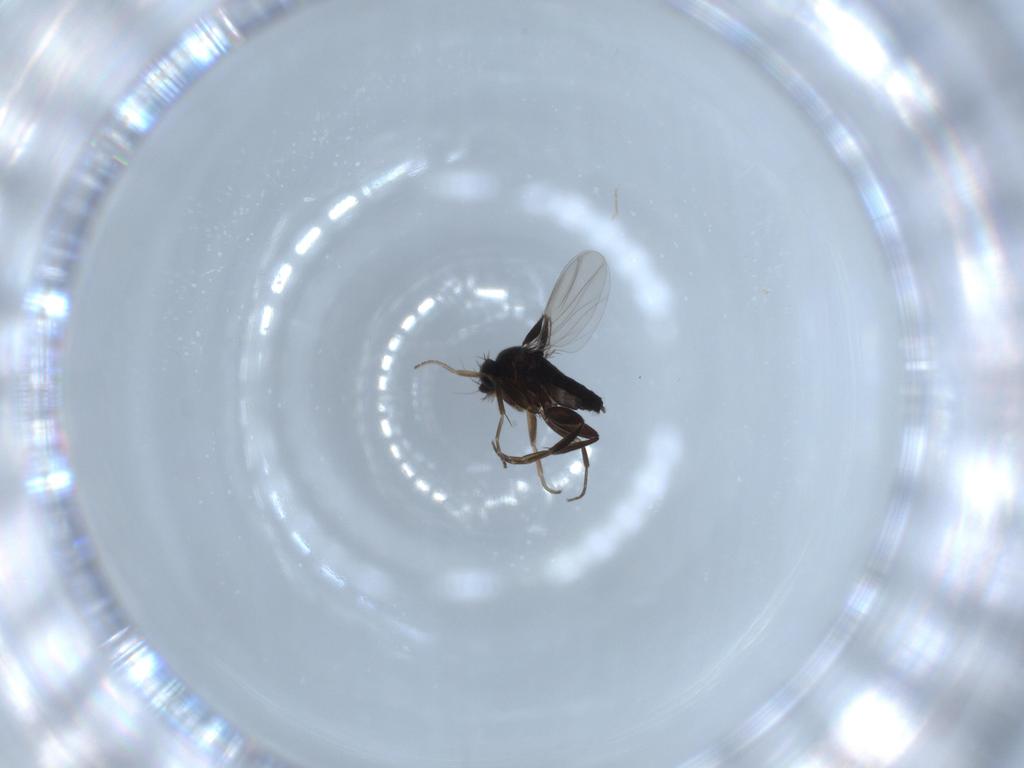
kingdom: Animalia
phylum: Arthropoda
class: Insecta
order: Diptera
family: Phoridae
